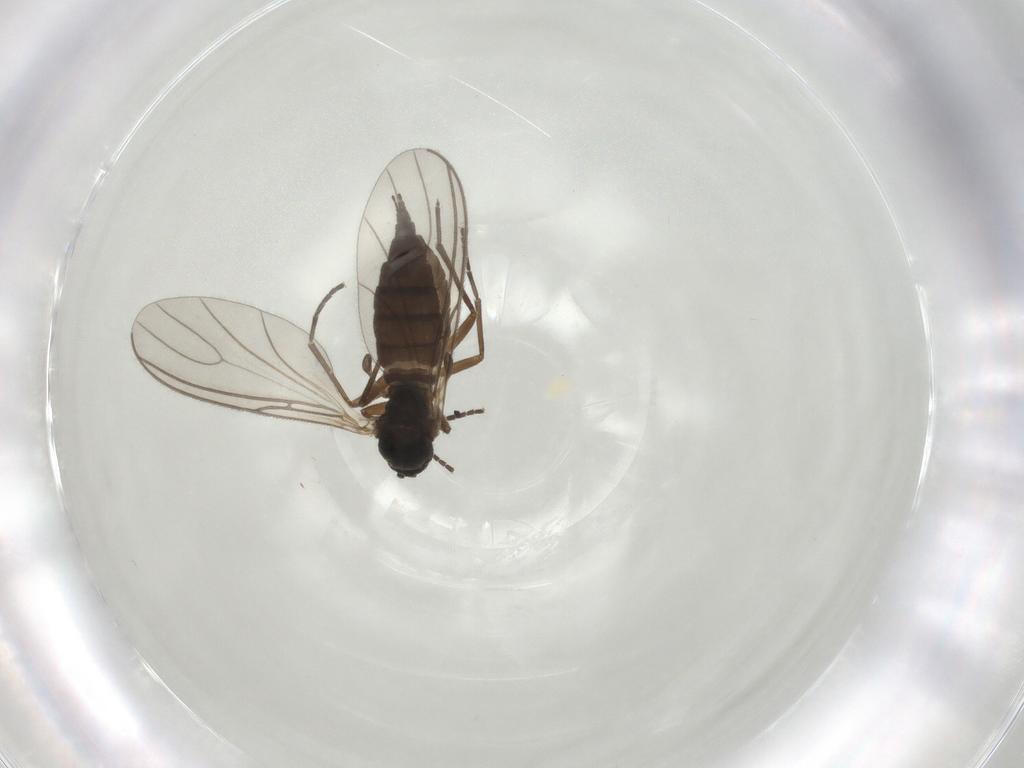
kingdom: Animalia
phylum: Arthropoda
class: Insecta
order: Diptera
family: Sciaridae
